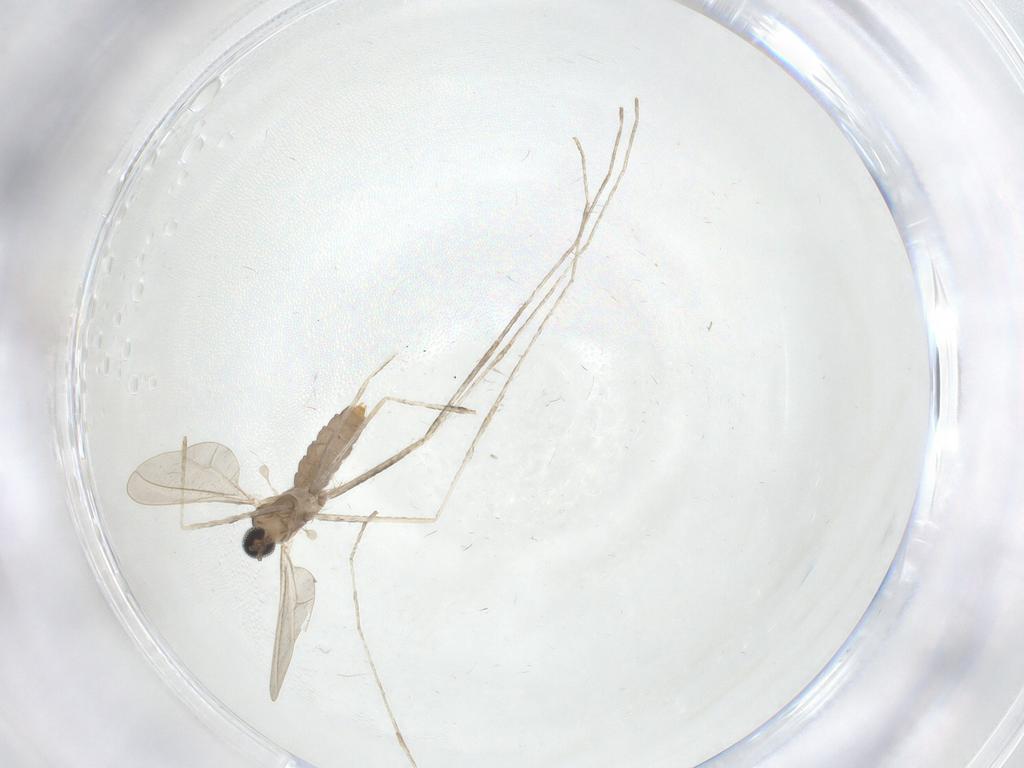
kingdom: Animalia
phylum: Arthropoda
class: Insecta
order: Diptera
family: Cecidomyiidae
